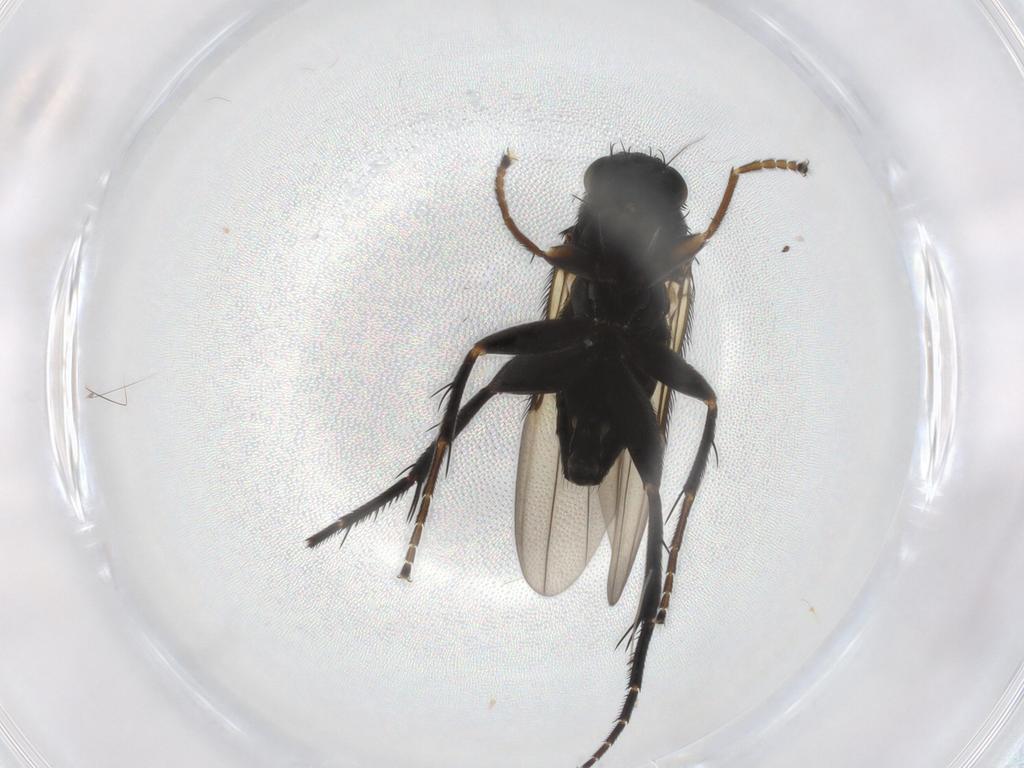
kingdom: Animalia
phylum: Arthropoda
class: Insecta
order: Diptera
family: Phoridae
